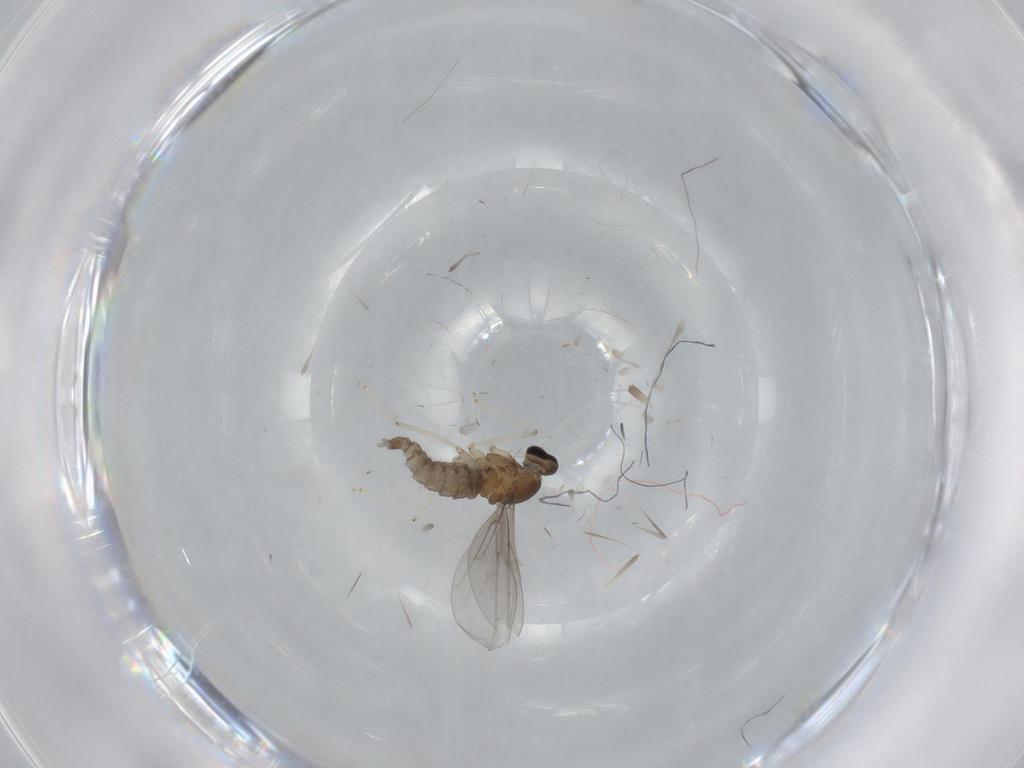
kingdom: Animalia
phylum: Arthropoda
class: Insecta
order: Diptera
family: Cecidomyiidae
